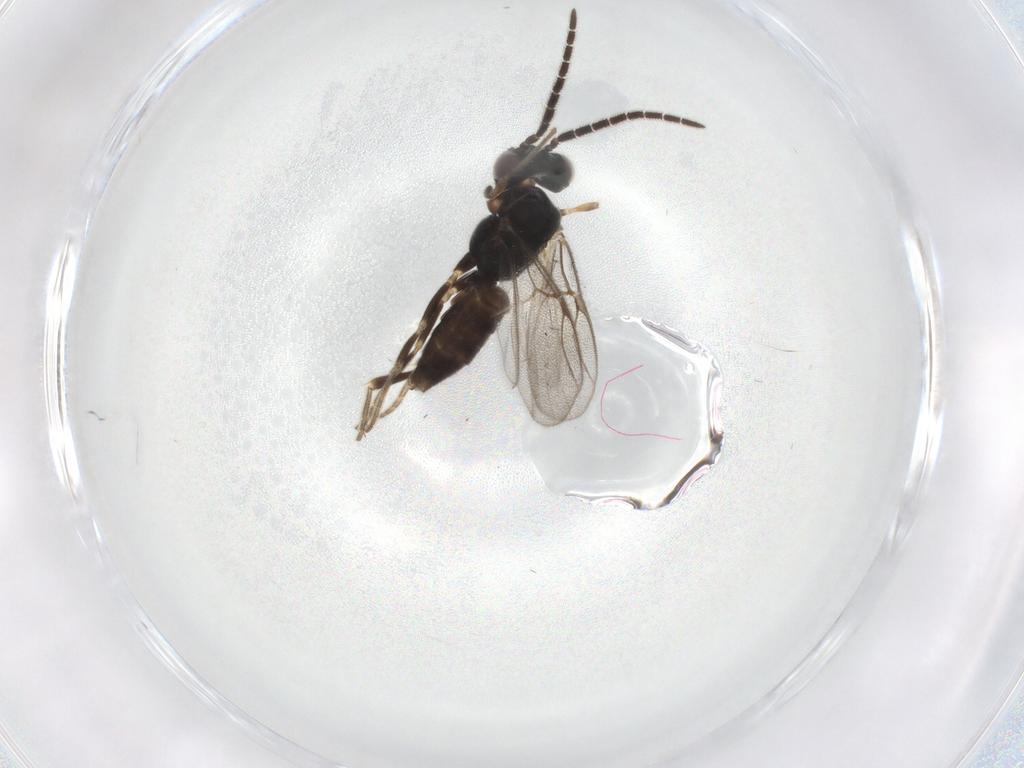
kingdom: Animalia
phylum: Arthropoda
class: Insecta
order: Hymenoptera
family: Dryinidae
